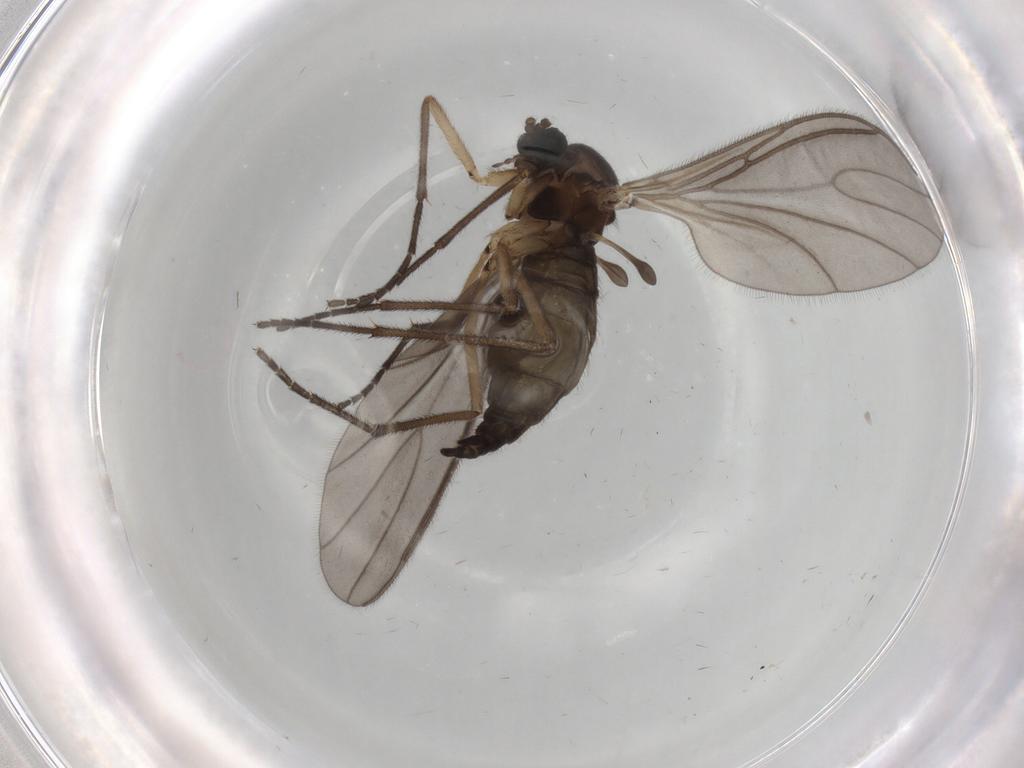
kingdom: Animalia
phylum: Arthropoda
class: Insecta
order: Diptera
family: Sciaridae
